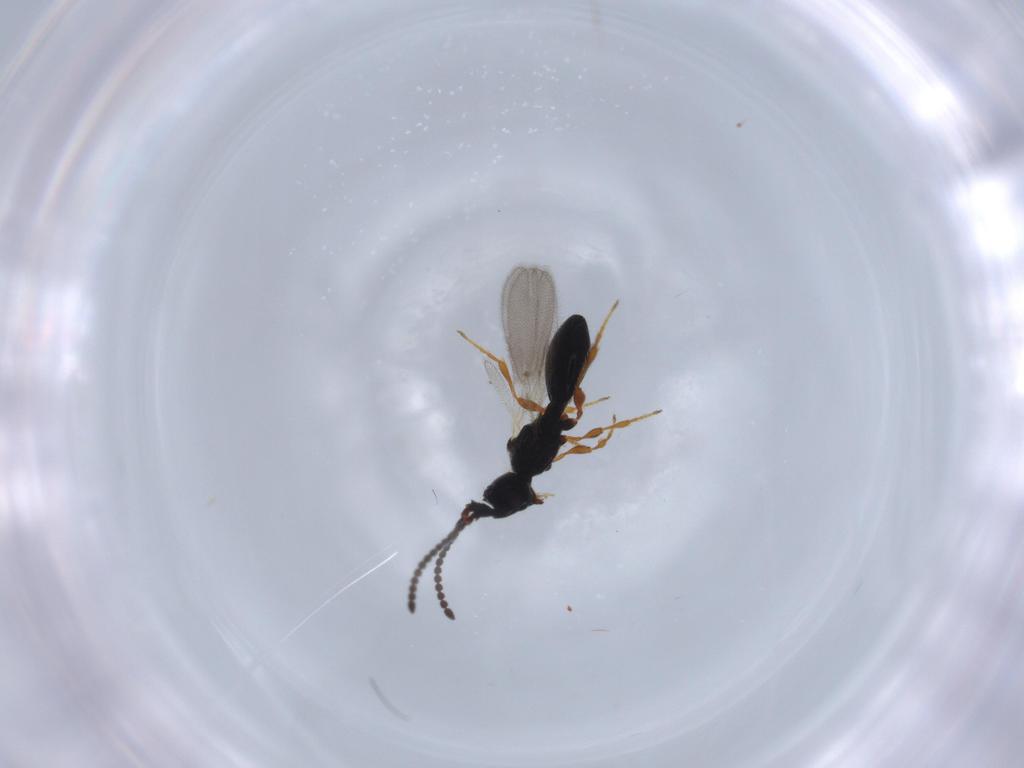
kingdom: Animalia
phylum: Arthropoda
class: Insecta
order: Hymenoptera
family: Diapriidae
